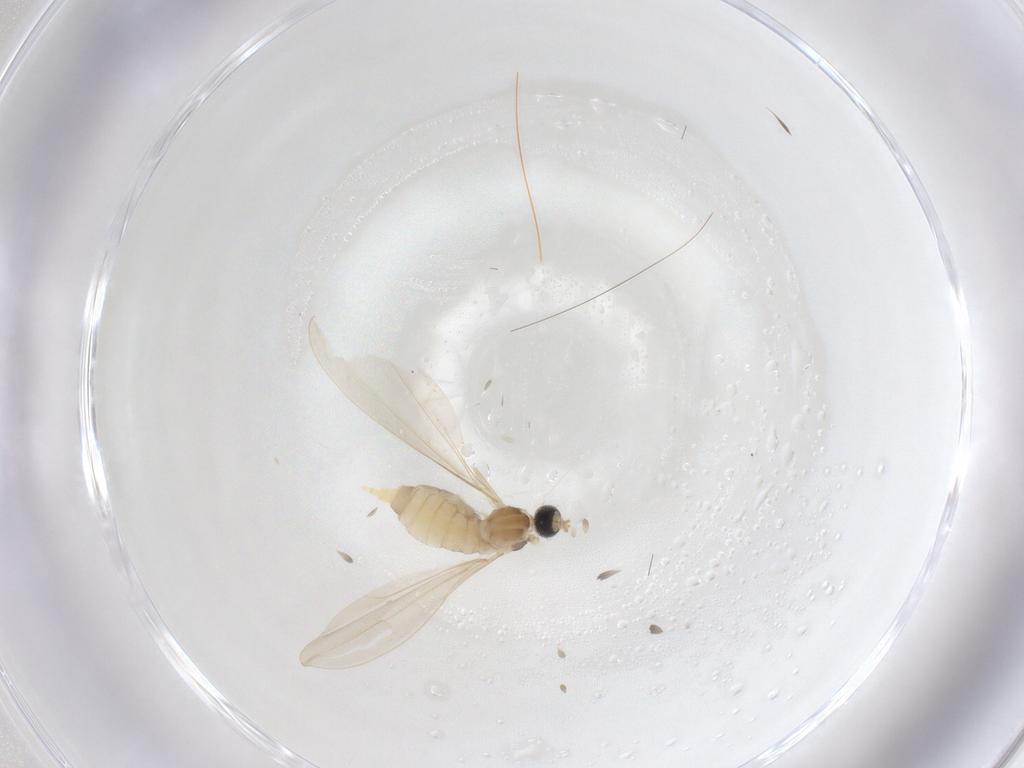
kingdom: Animalia
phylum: Arthropoda
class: Insecta
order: Diptera
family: Cecidomyiidae
